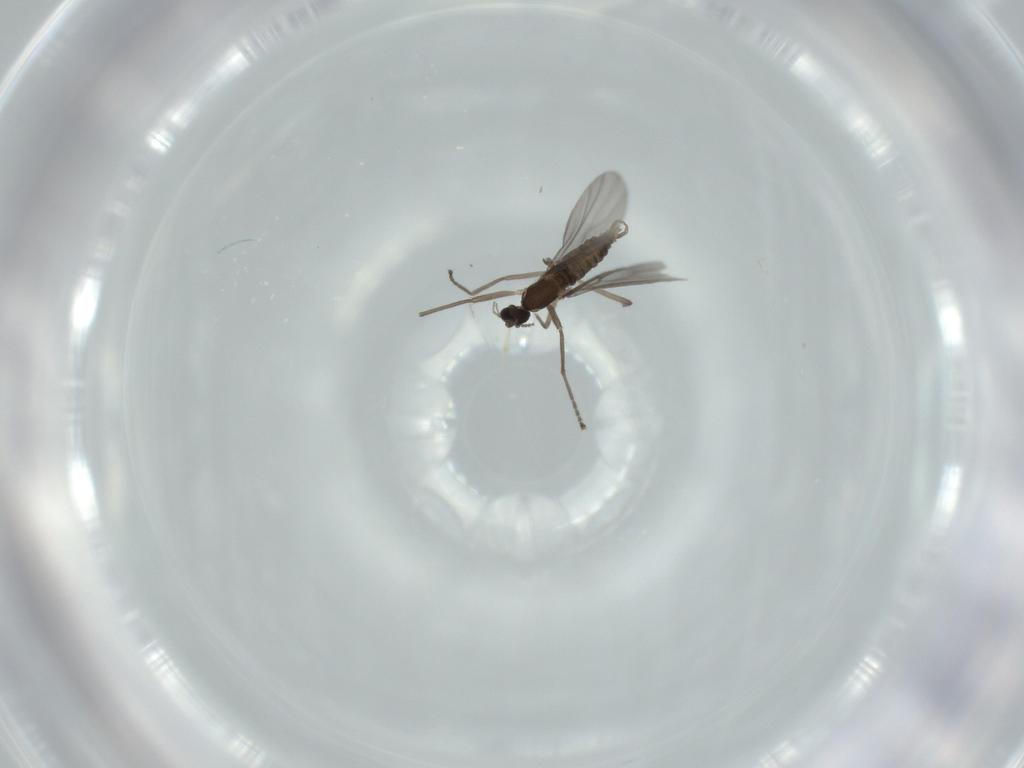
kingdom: Animalia
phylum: Arthropoda
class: Insecta
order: Diptera
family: Cecidomyiidae
